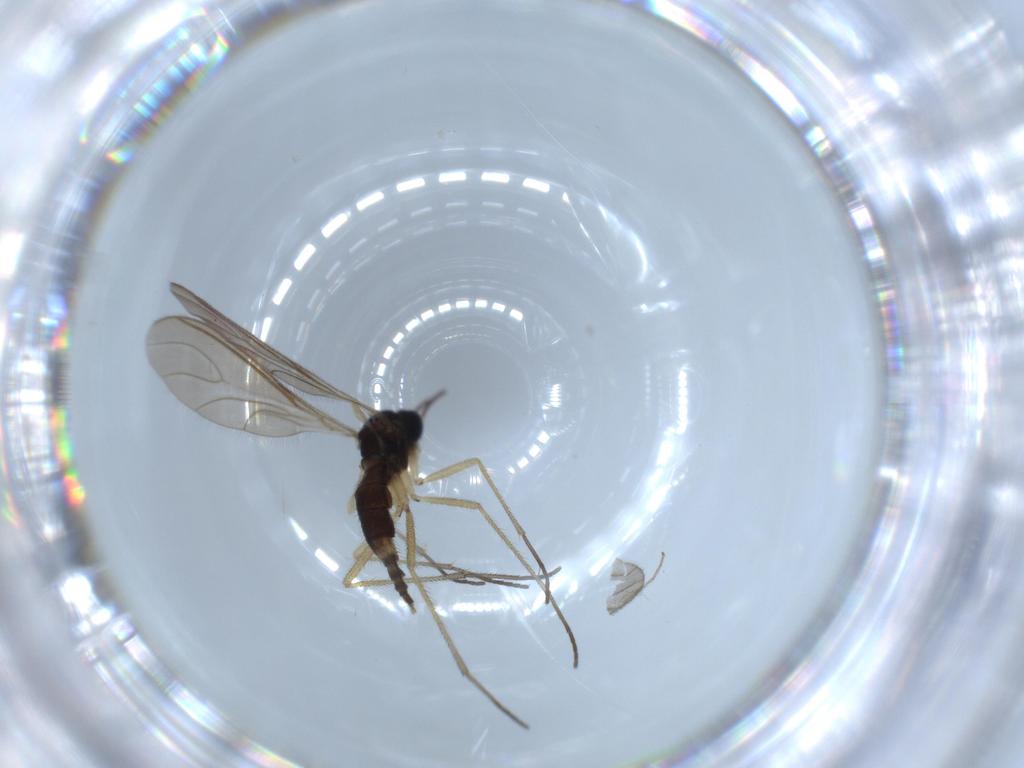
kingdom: Animalia
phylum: Arthropoda
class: Insecta
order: Diptera
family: Sciaridae
